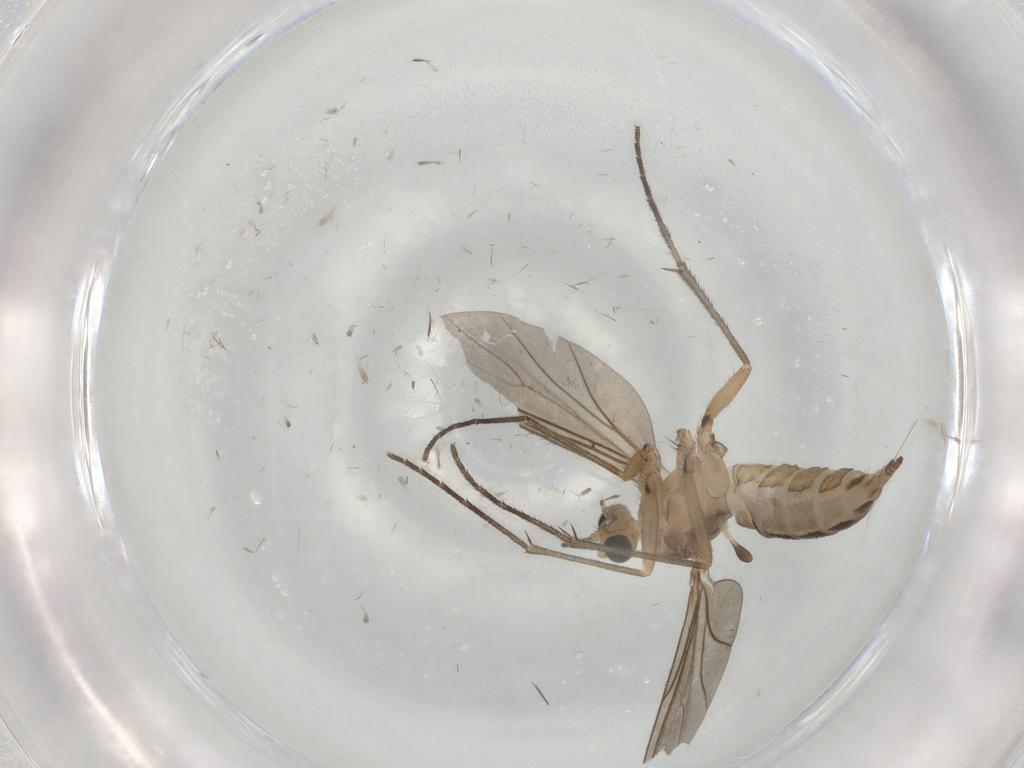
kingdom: Animalia
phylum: Arthropoda
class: Insecta
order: Diptera
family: Sciaridae
